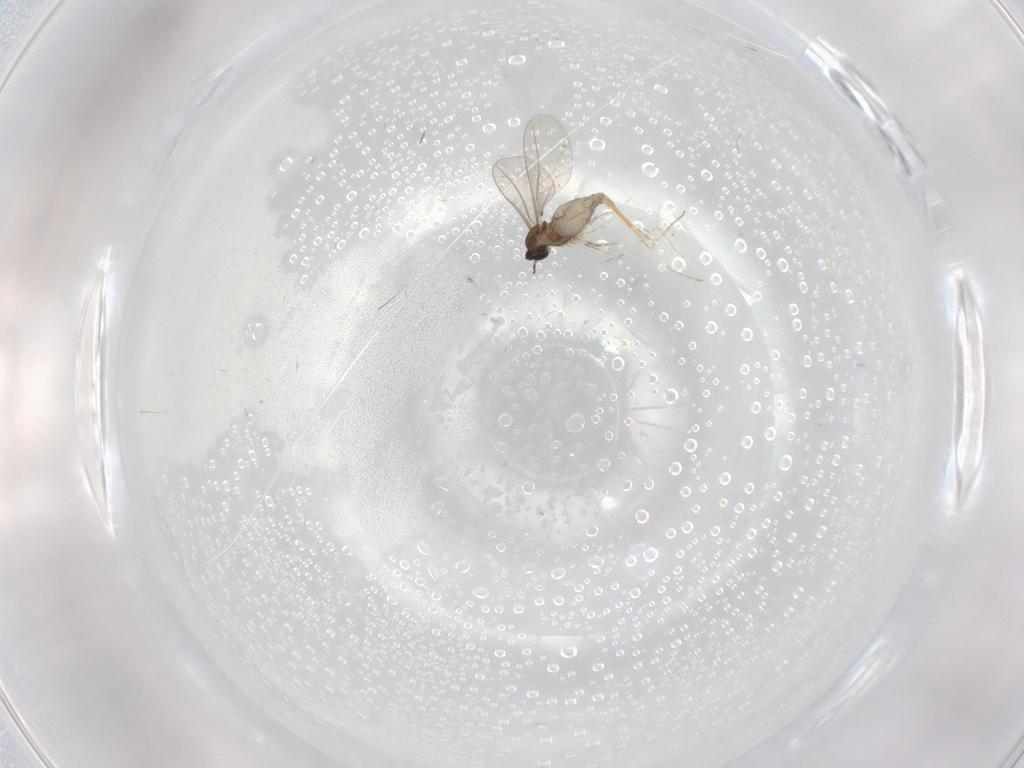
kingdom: Animalia
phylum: Arthropoda
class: Insecta
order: Diptera
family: Cecidomyiidae
